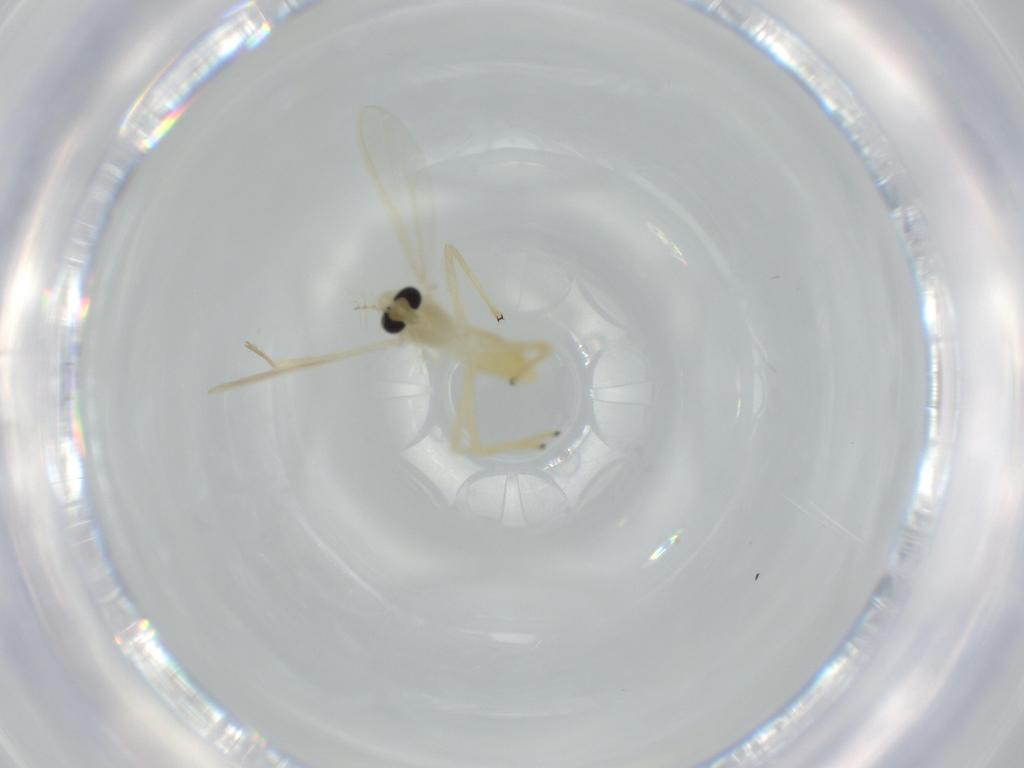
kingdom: Animalia
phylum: Arthropoda
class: Insecta
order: Diptera
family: Chironomidae
